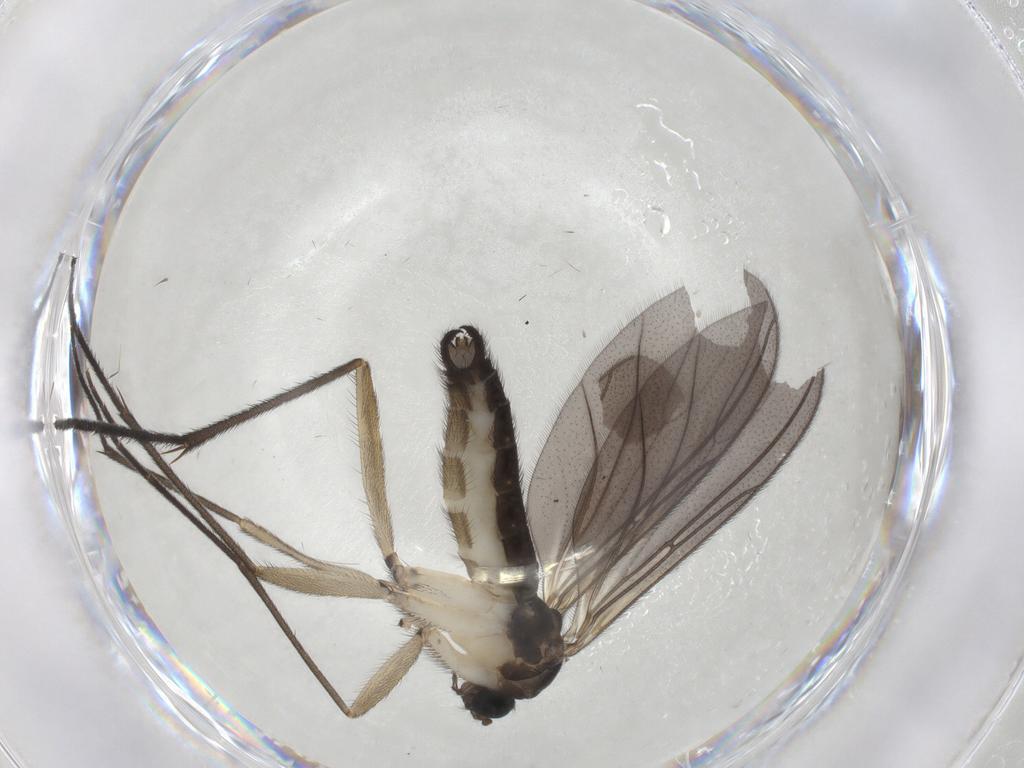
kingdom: Animalia
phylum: Arthropoda
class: Insecta
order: Diptera
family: Sciaridae
